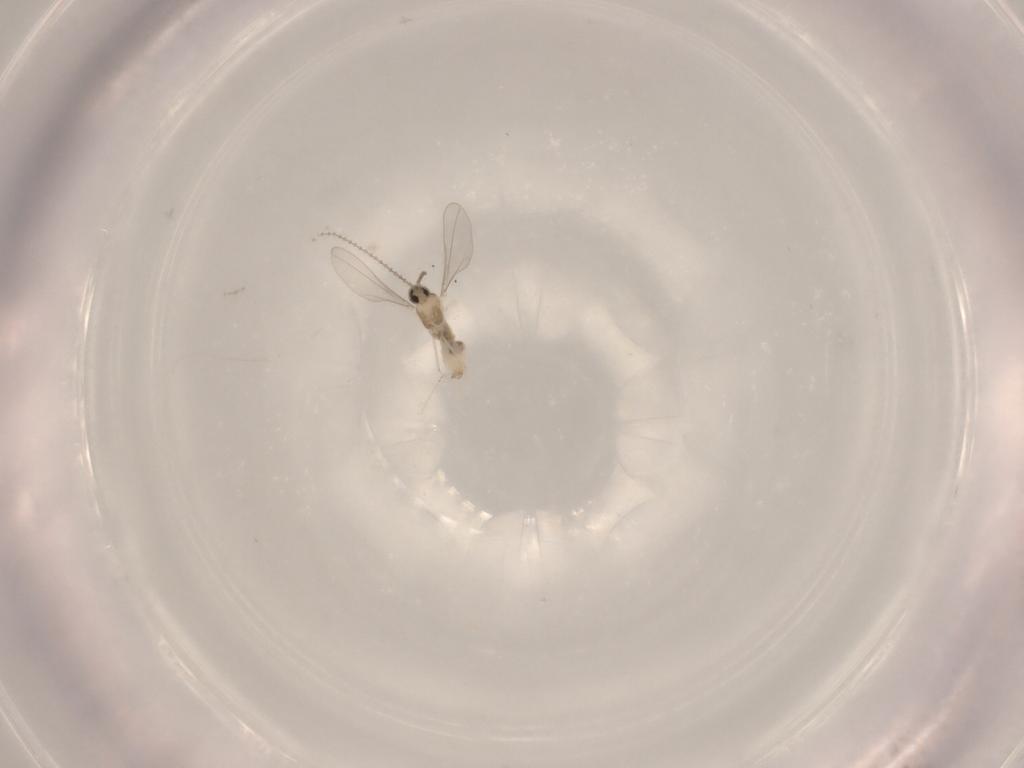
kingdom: Animalia
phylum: Arthropoda
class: Insecta
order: Diptera
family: Cecidomyiidae
